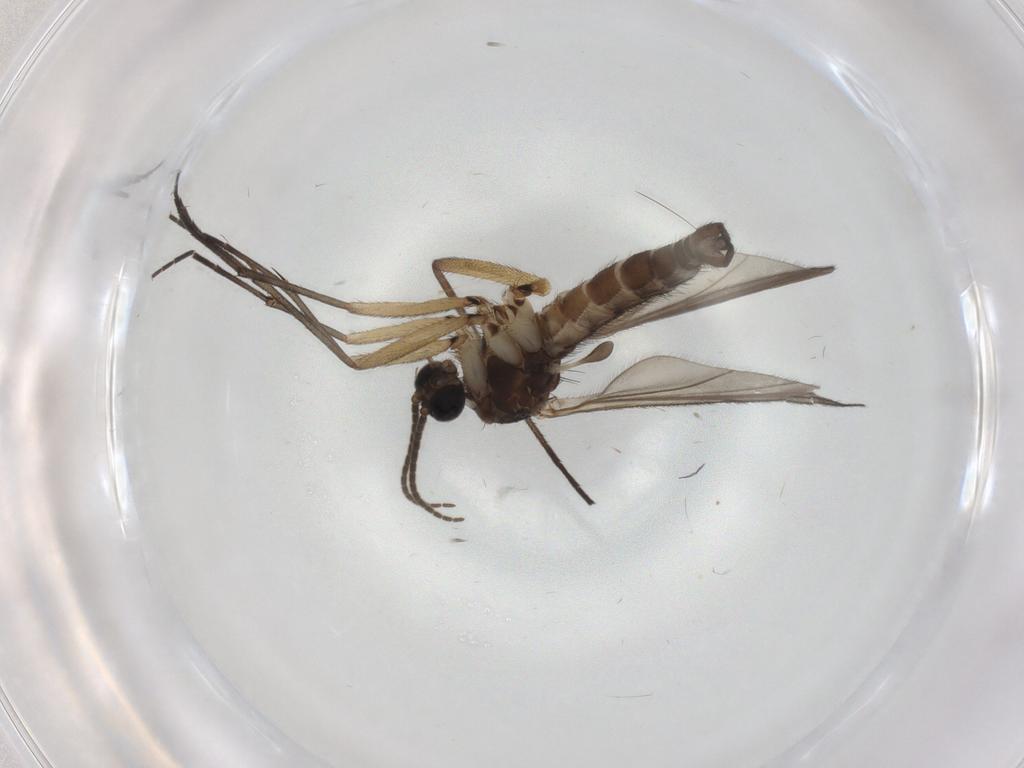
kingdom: Animalia
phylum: Arthropoda
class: Insecta
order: Diptera
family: Sciaridae
